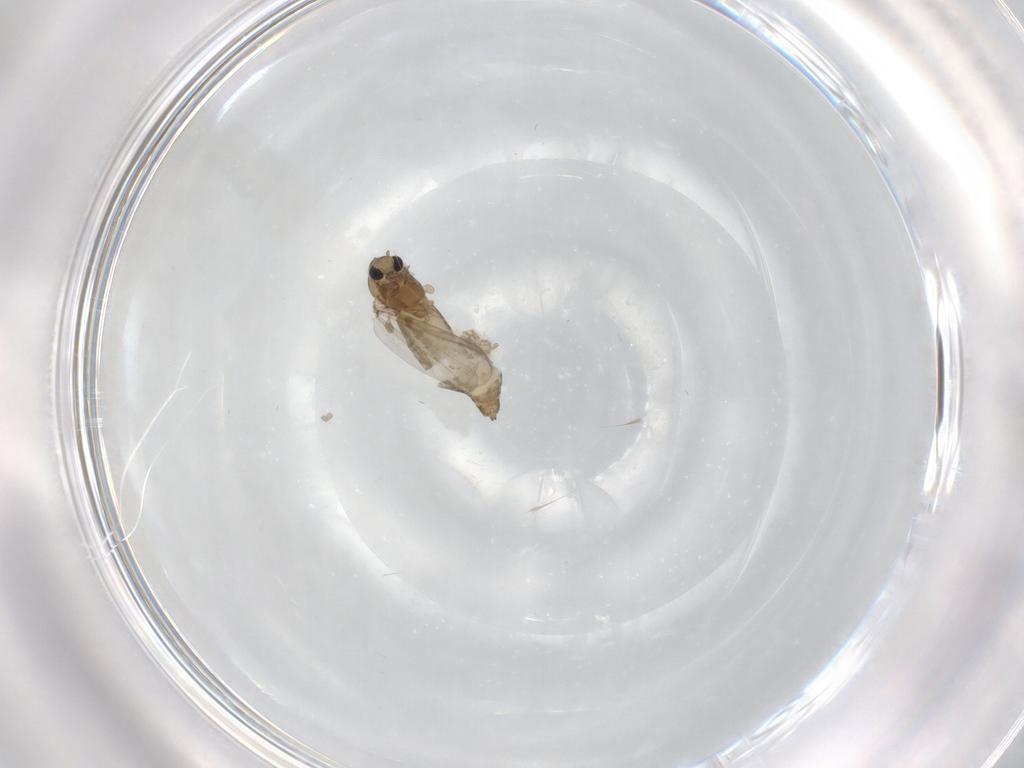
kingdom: Animalia
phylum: Arthropoda
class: Insecta
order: Diptera
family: Chironomidae
